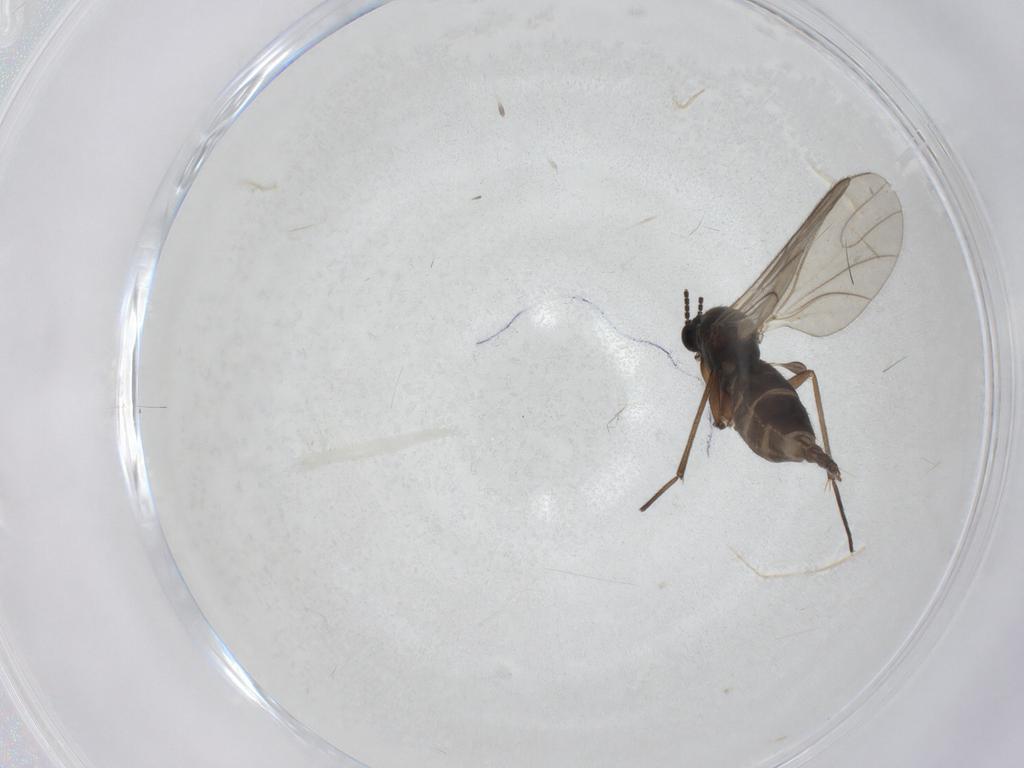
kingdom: Animalia
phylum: Arthropoda
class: Insecta
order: Diptera
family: Sciaridae
